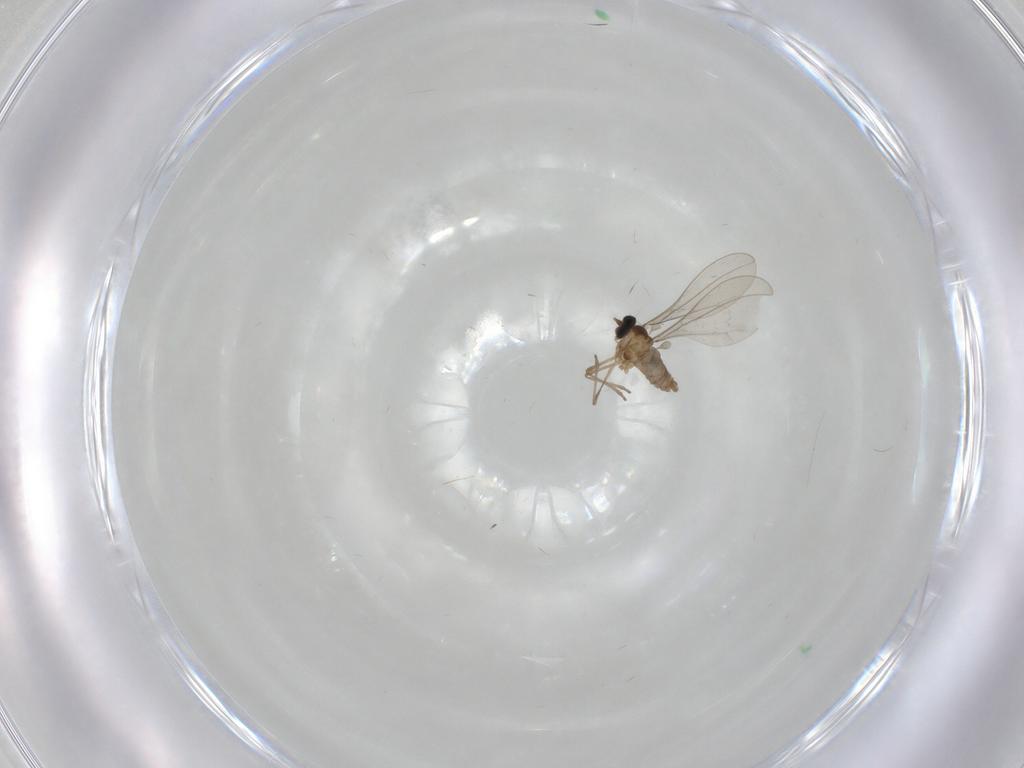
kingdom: Animalia
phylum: Arthropoda
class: Insecta
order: Diptera
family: Cecidomyiidae
